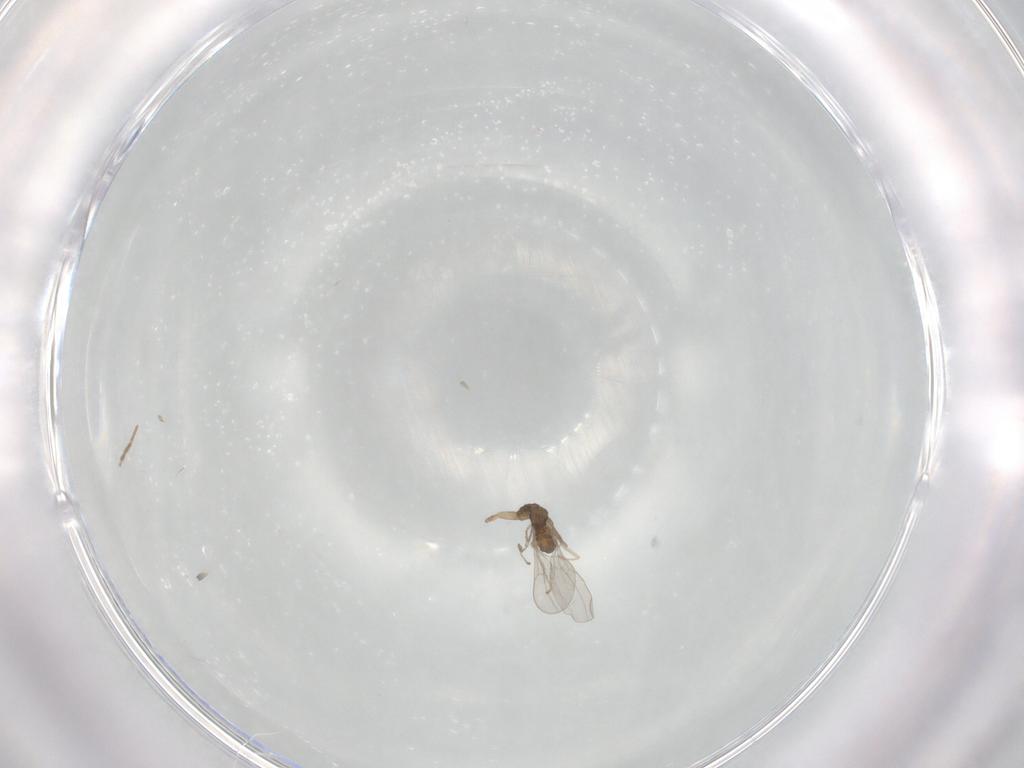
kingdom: Animalia
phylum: Arthropoda
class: Insecta
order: Diptera
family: Cecidomyiidae
